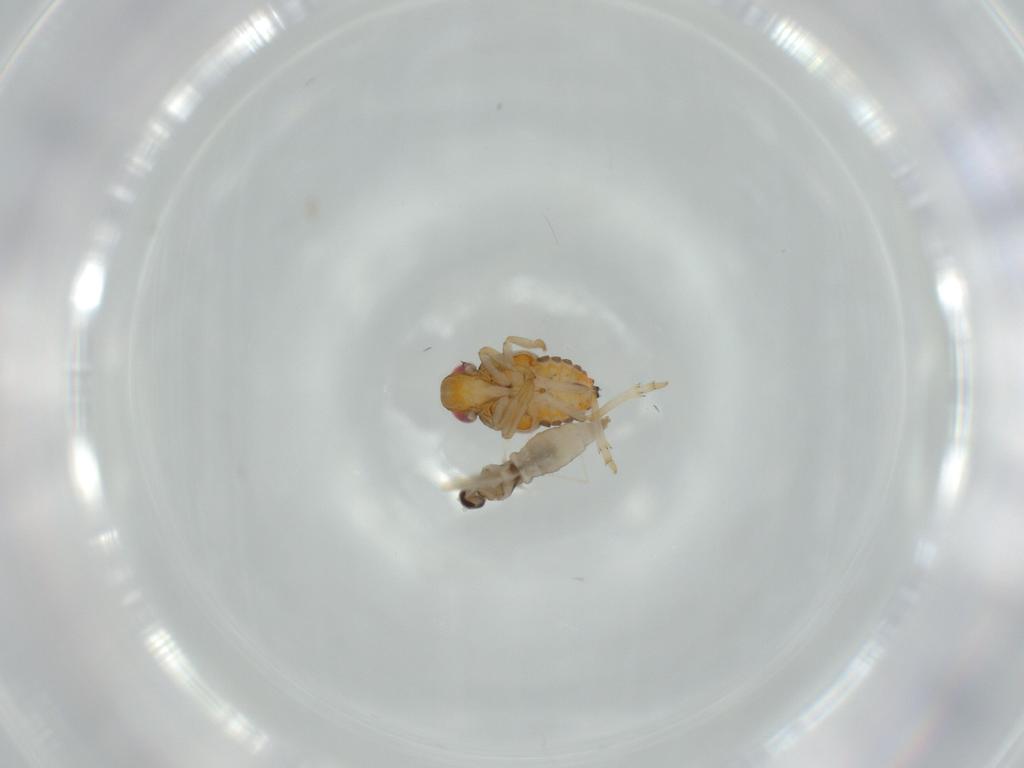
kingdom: Animalia
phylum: Arthropoda
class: Insecta
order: Hemiptera
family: Issidae
